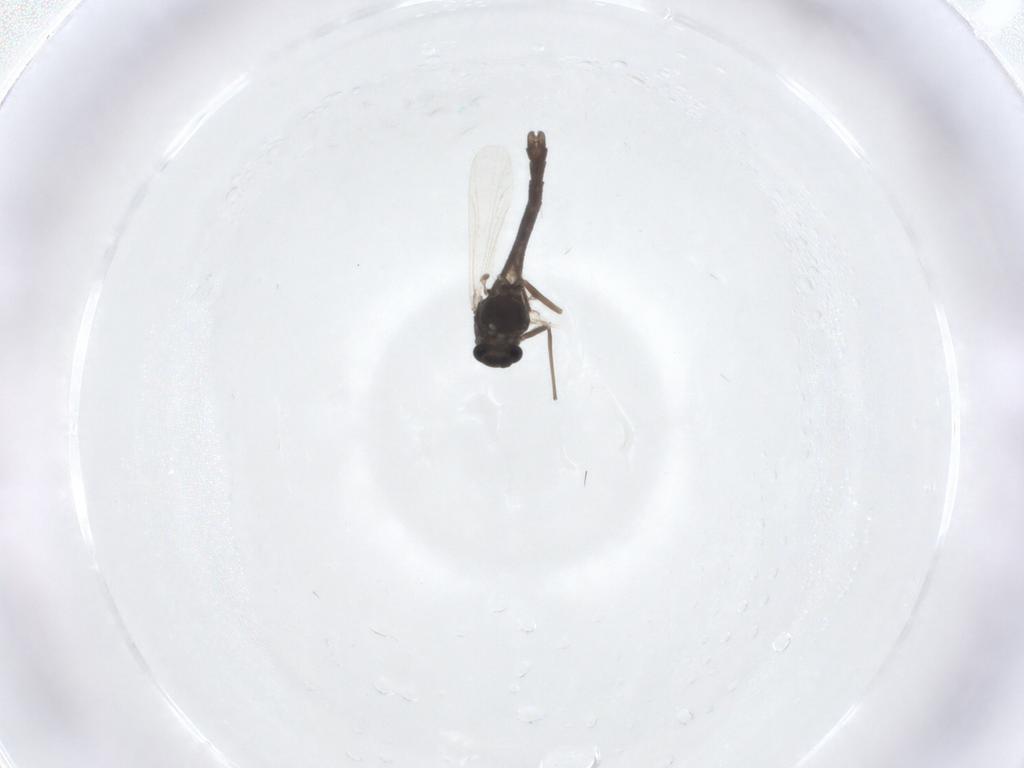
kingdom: Animalia
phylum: Arthropoda
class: Insecta
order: Diptera
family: Chironomidae
